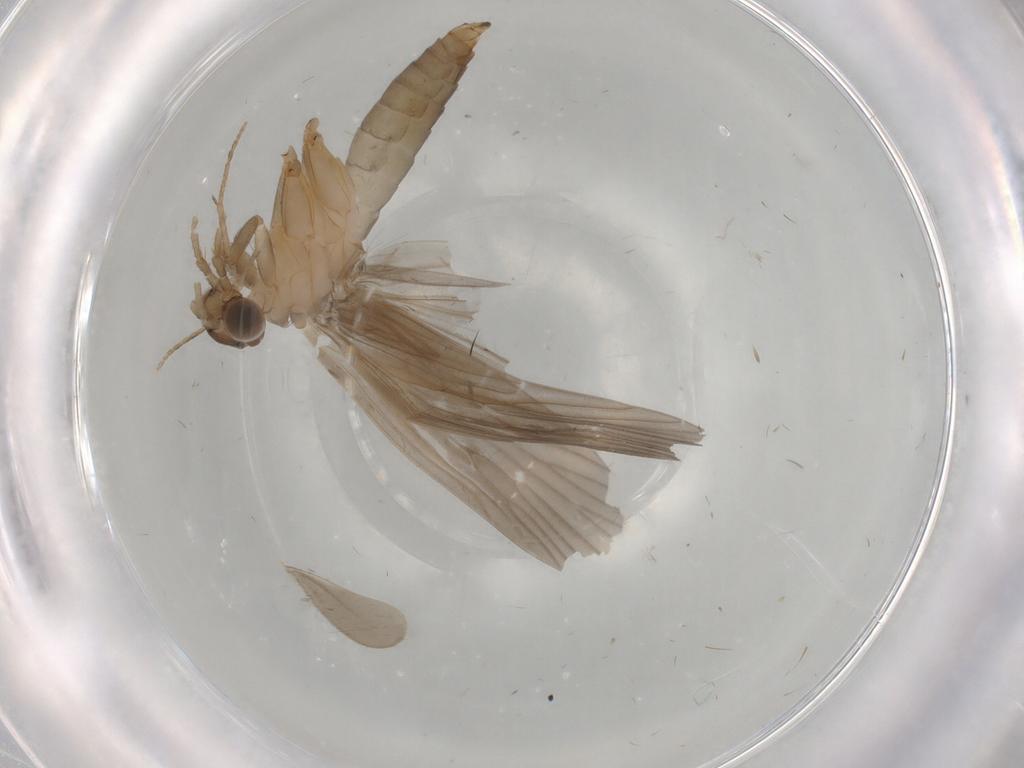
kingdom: Animalia
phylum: Arthropoda
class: Insecta
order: Trichoptera
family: Philopotamidae
